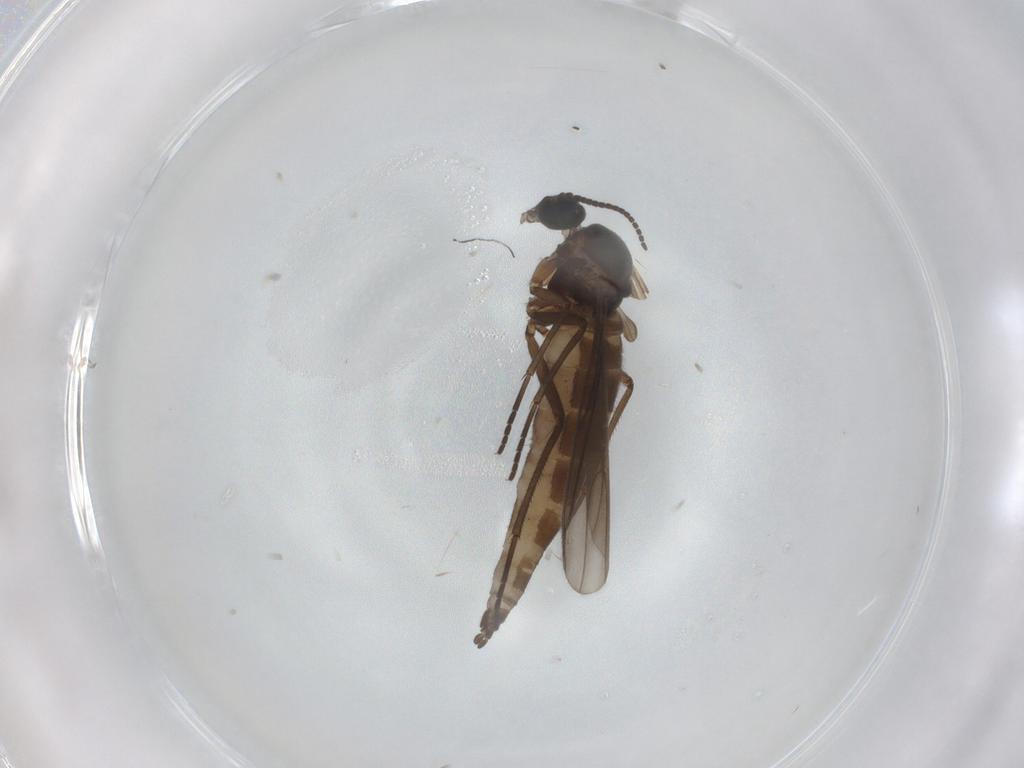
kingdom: Animalia
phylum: Arthropoda
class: Insecta
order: Diptera
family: Sciaridae
